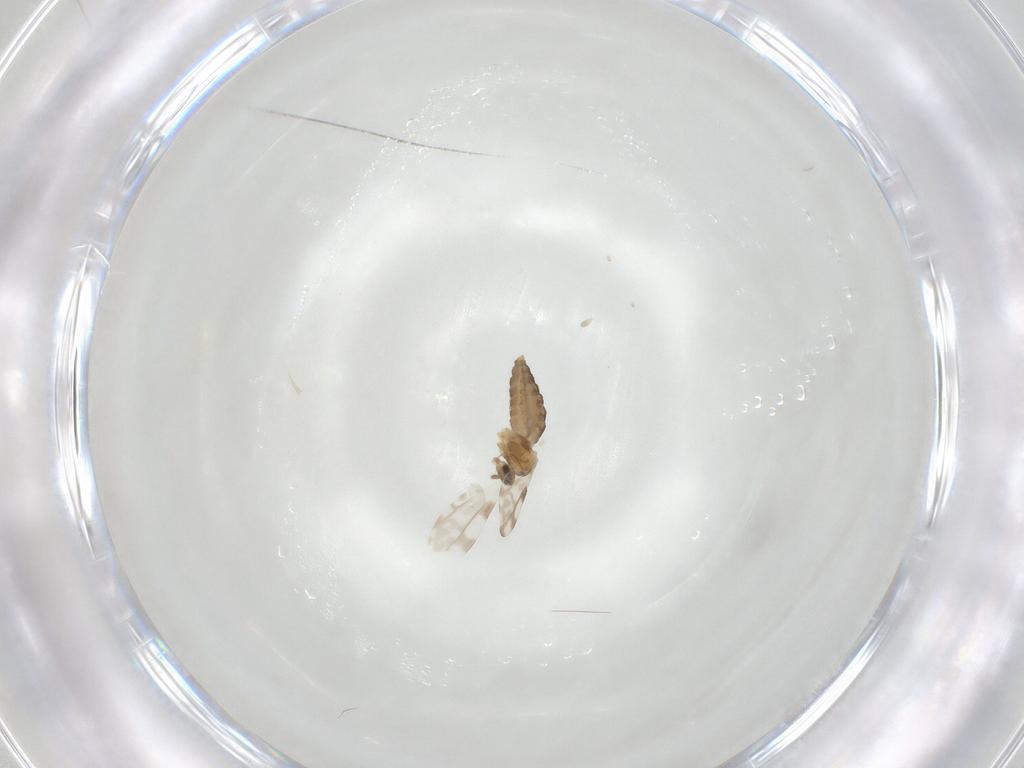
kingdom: Animalia
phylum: Arthropoda
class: Insecta
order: Diptera
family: Cecidomyiidae
